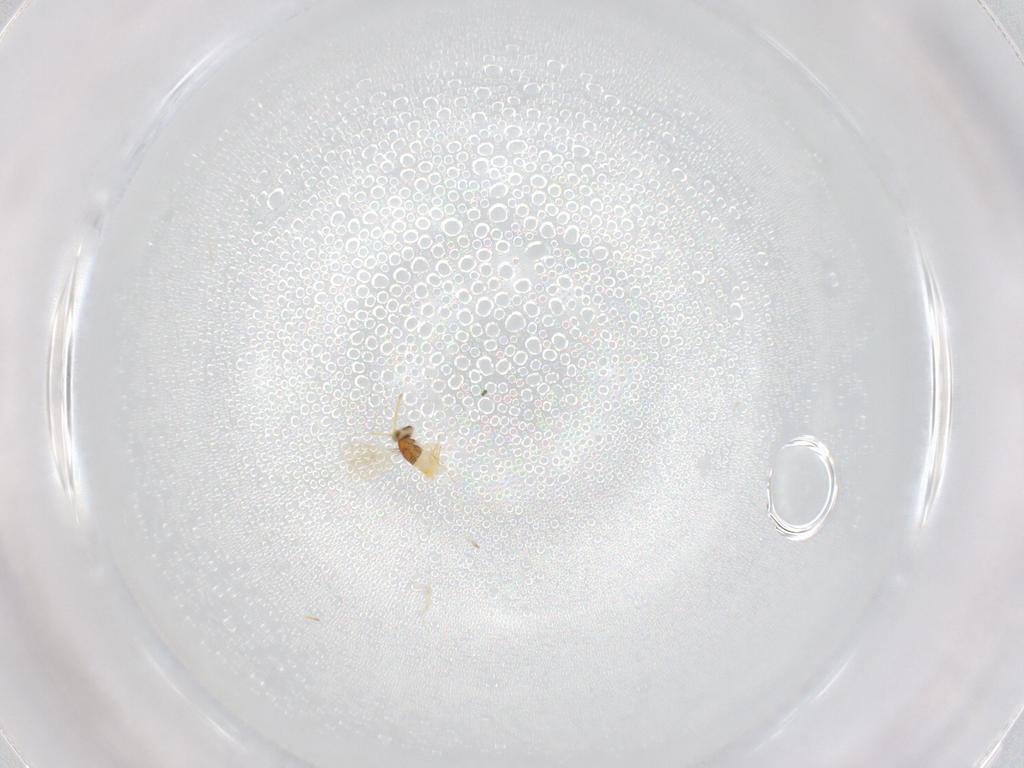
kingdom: Animalia
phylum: Arthropoda
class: Insecta
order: Hymenoptera
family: Aphelinidae
